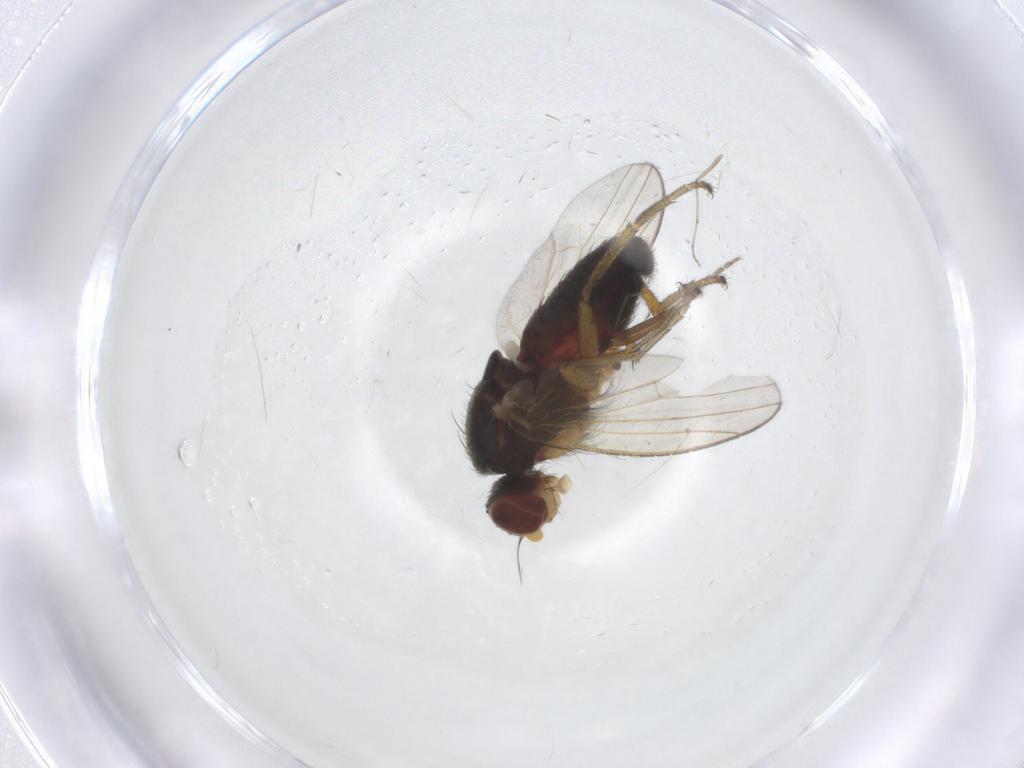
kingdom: Animalia
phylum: Arthropoda
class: Insecta
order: Diptera
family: Heleomyzidae
